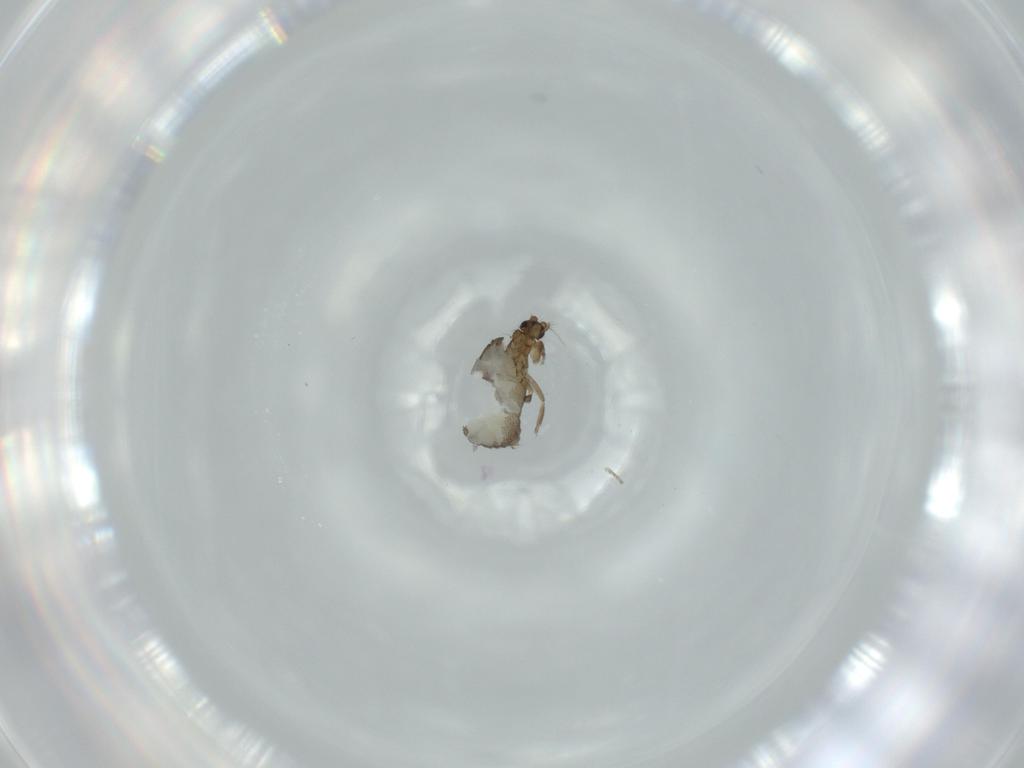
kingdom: Animalia
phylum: Arthropoda
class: Insecta
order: Diptera
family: Phoridae
